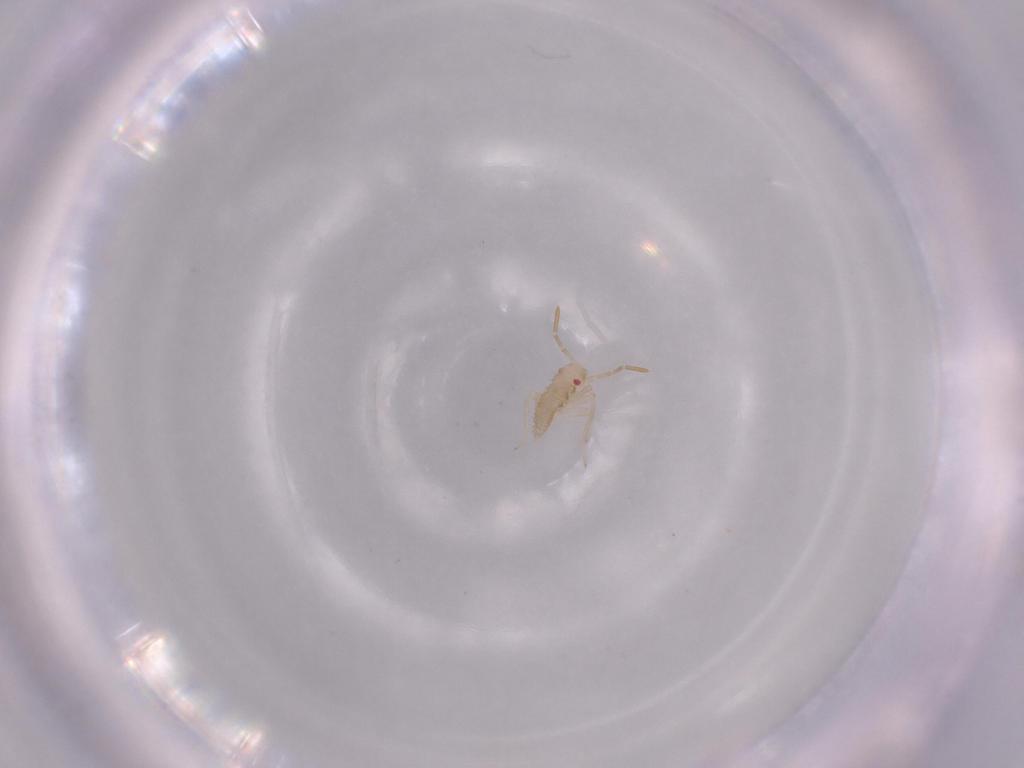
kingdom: Animalia
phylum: Arthropoda
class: Insecta
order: Hemiptera
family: Miridae
